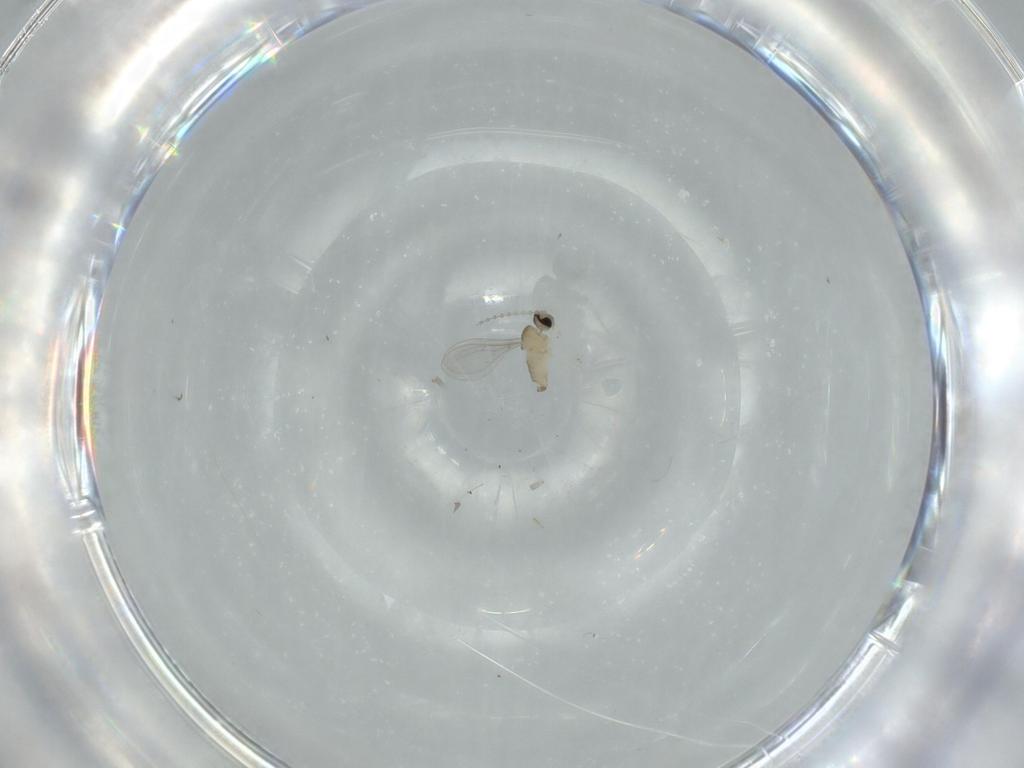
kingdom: Animalia
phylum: Arthropoda
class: Insecta
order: Diptera
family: Cecidomyiidae
